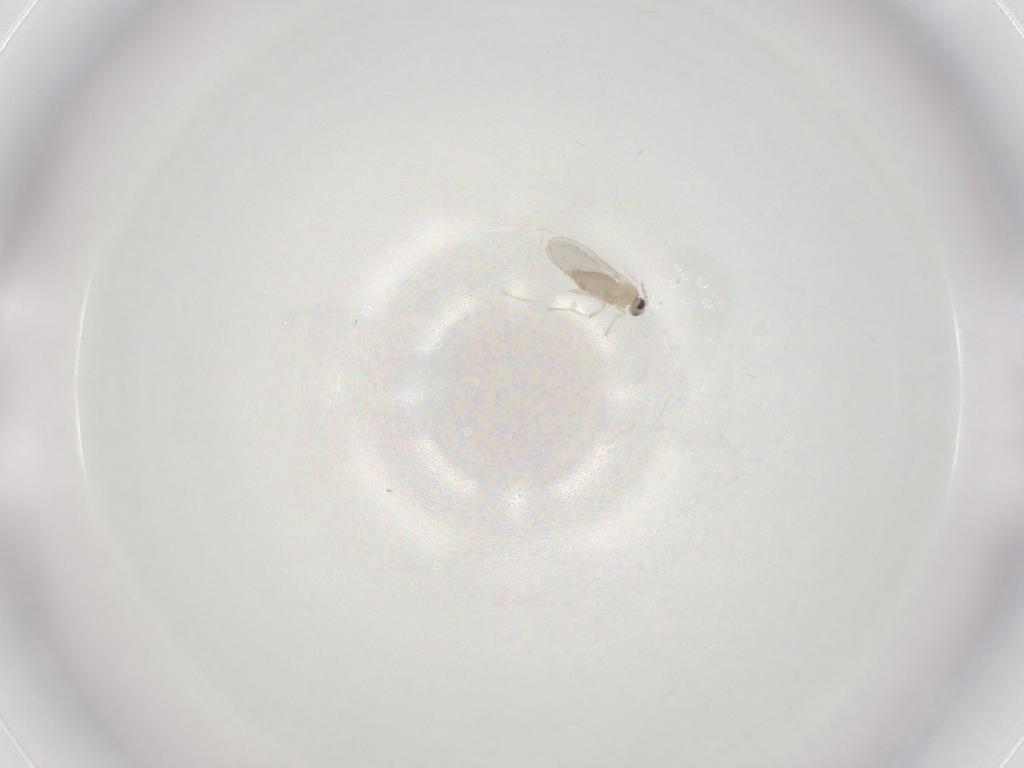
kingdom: Animalia
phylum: Arthropoda
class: Insecta
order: Diptera
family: Cecidomyiidae
